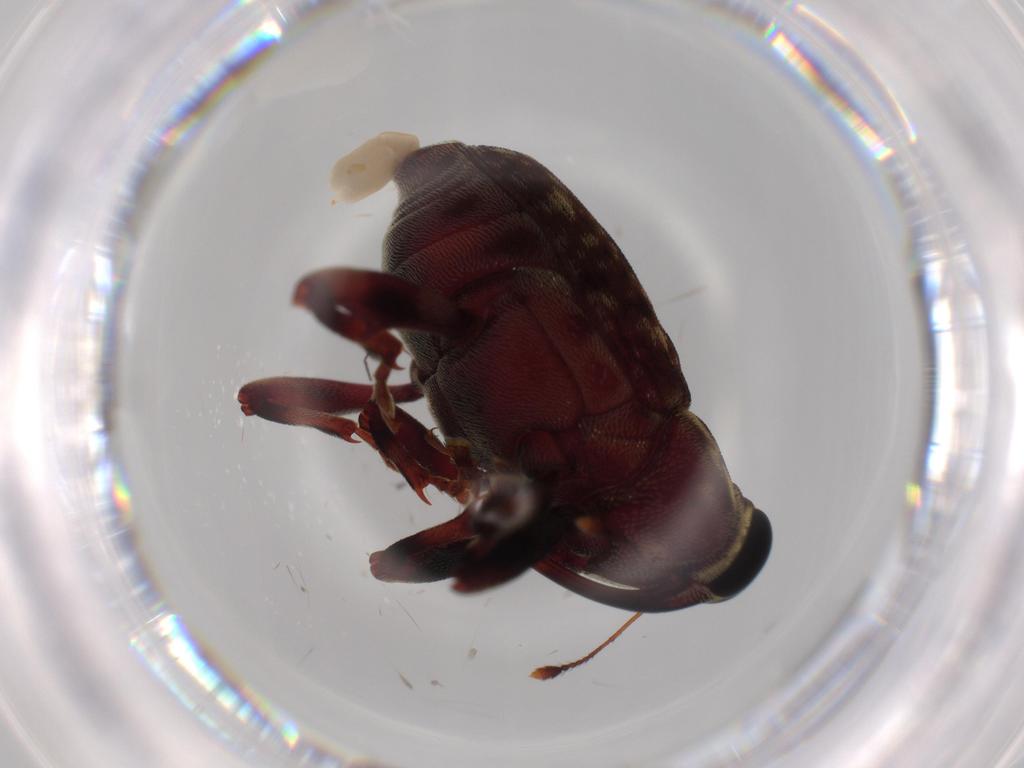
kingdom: Animalia
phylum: Arthropoda
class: Insecta
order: Coleoptera
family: Curculionidae
